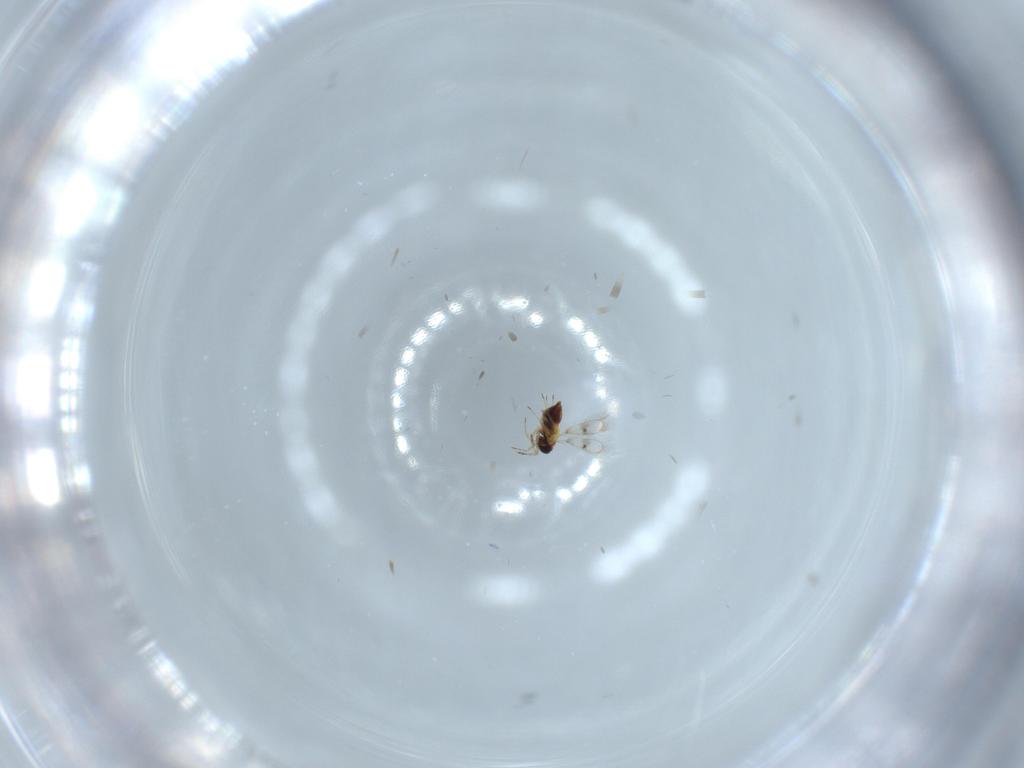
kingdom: Animalia
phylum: Arthropoda
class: Insecta
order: Hymenoptera
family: Trichogrammatidae
